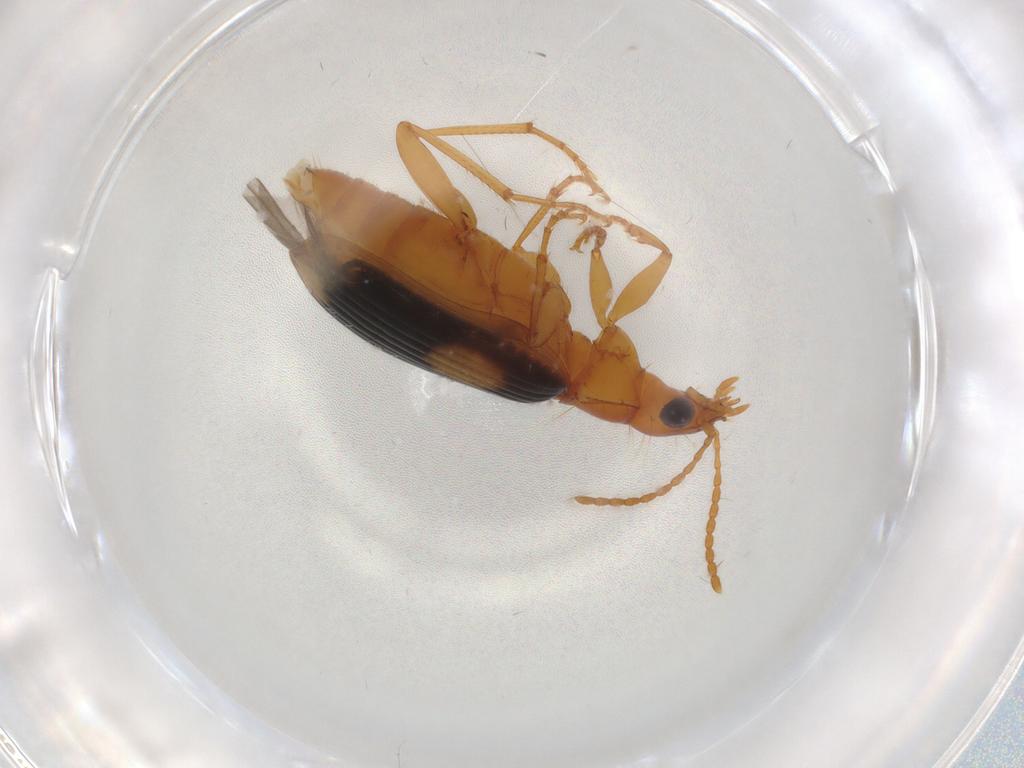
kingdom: Animalia
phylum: Arthropoda
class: Insecta
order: Coleoptera
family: Carabidae
